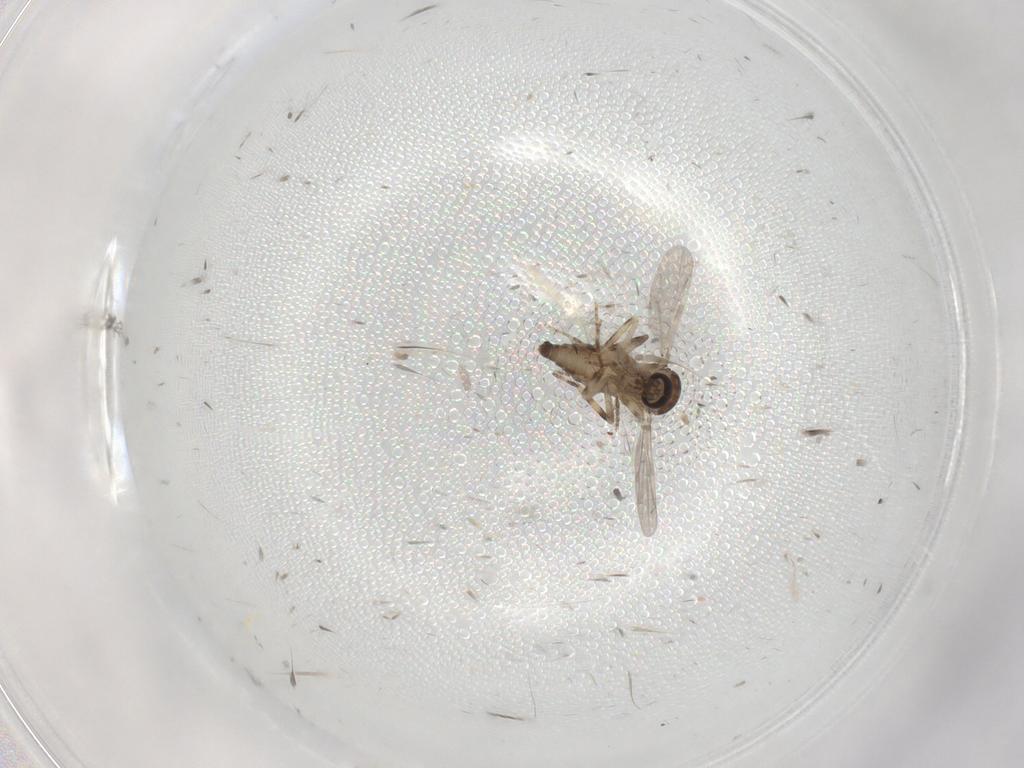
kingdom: Animalia
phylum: Arthropoda
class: Insecta
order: Diptera
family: Ceratopogonidae
